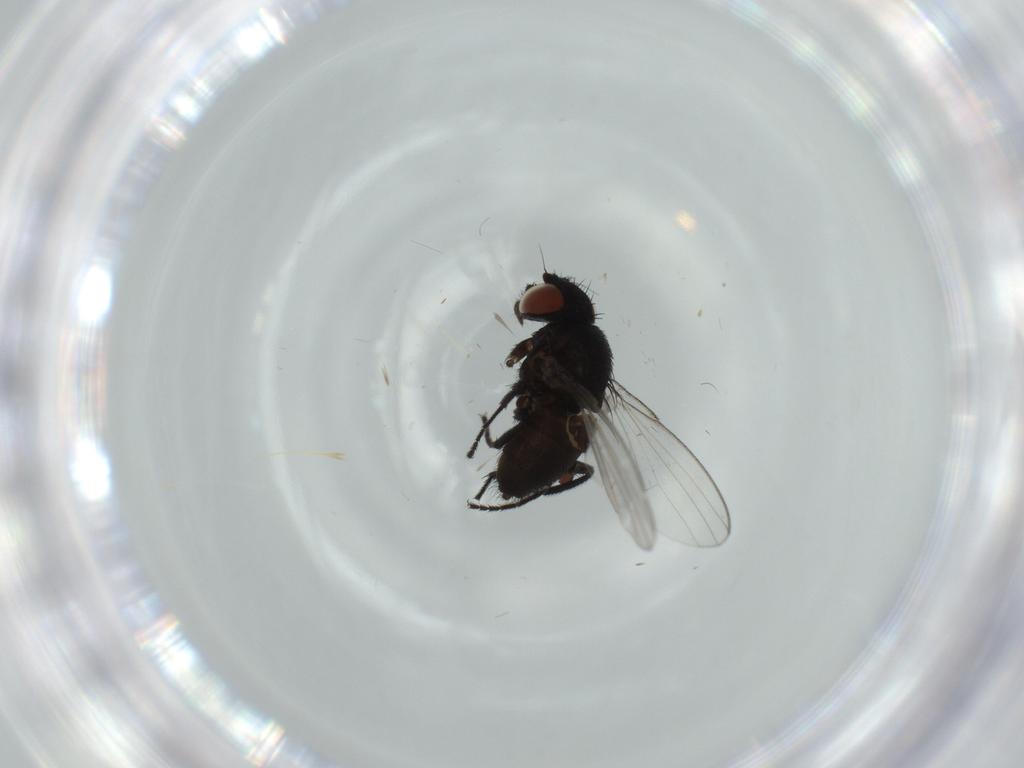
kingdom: Animalia
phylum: Arthropoda
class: Insecta
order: Diptera
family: Milichiidae
